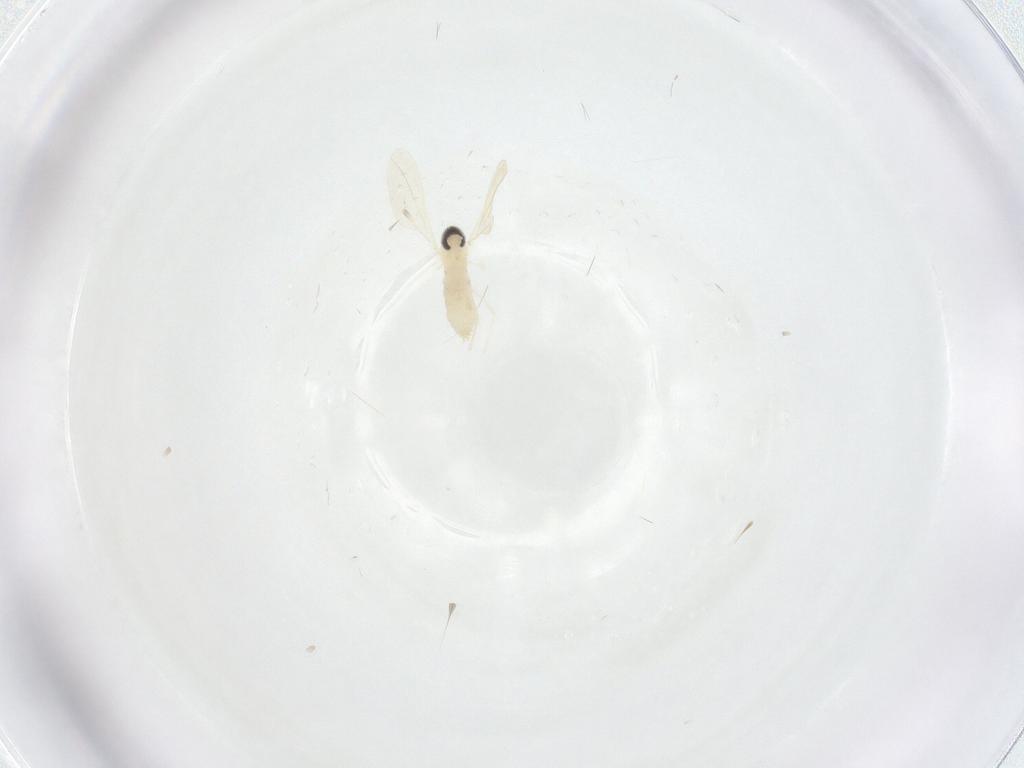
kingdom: Animalia
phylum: Arthropoda
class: Insecta
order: Diptera
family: Cecidomyiidae
